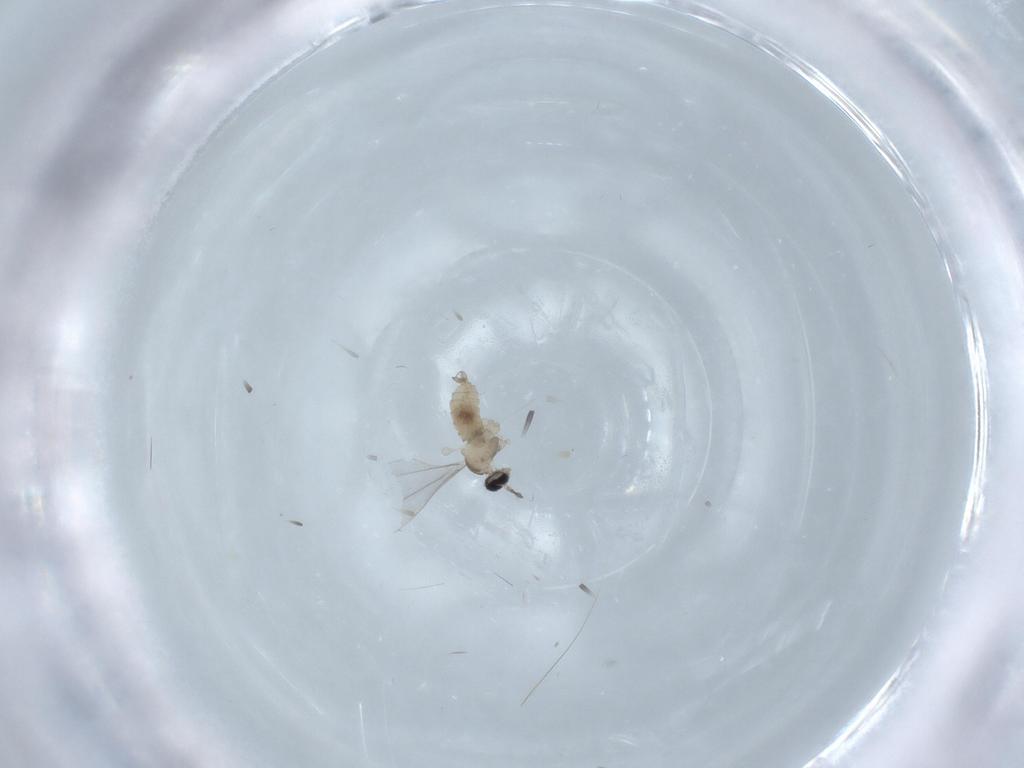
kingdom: Animalia
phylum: Arthropoda
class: Insecta
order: Diptera
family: Cecidomyiidae
